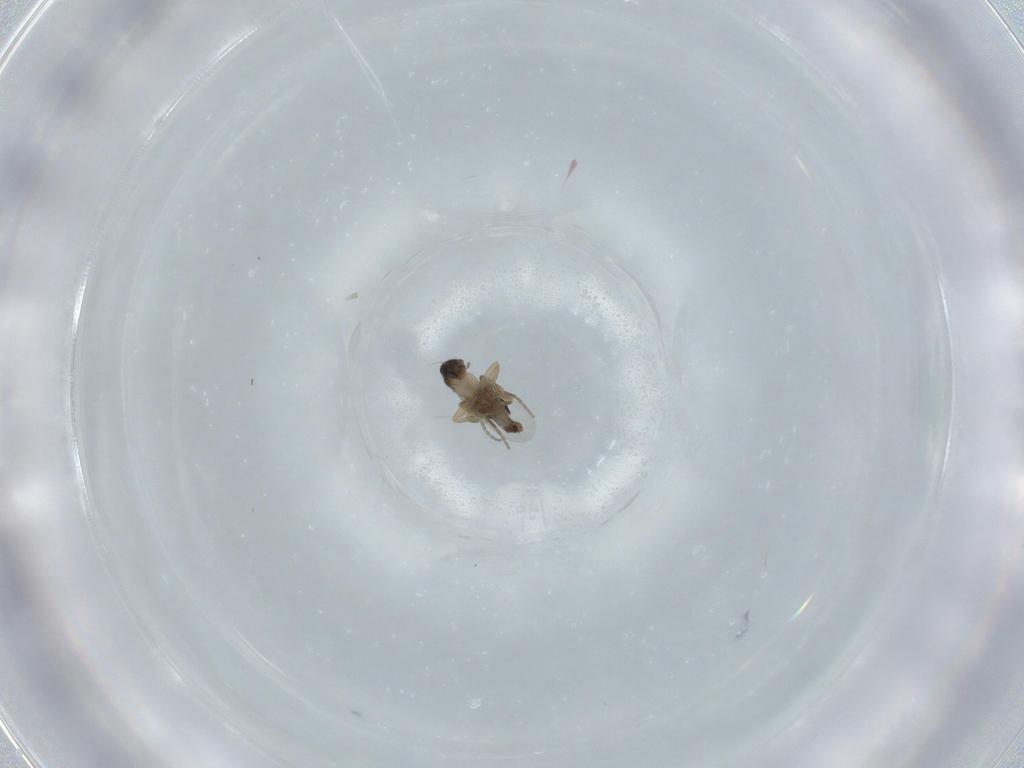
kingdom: Animalia
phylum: Arthropoda
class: Insecta
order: Diptera
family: Phoridae
